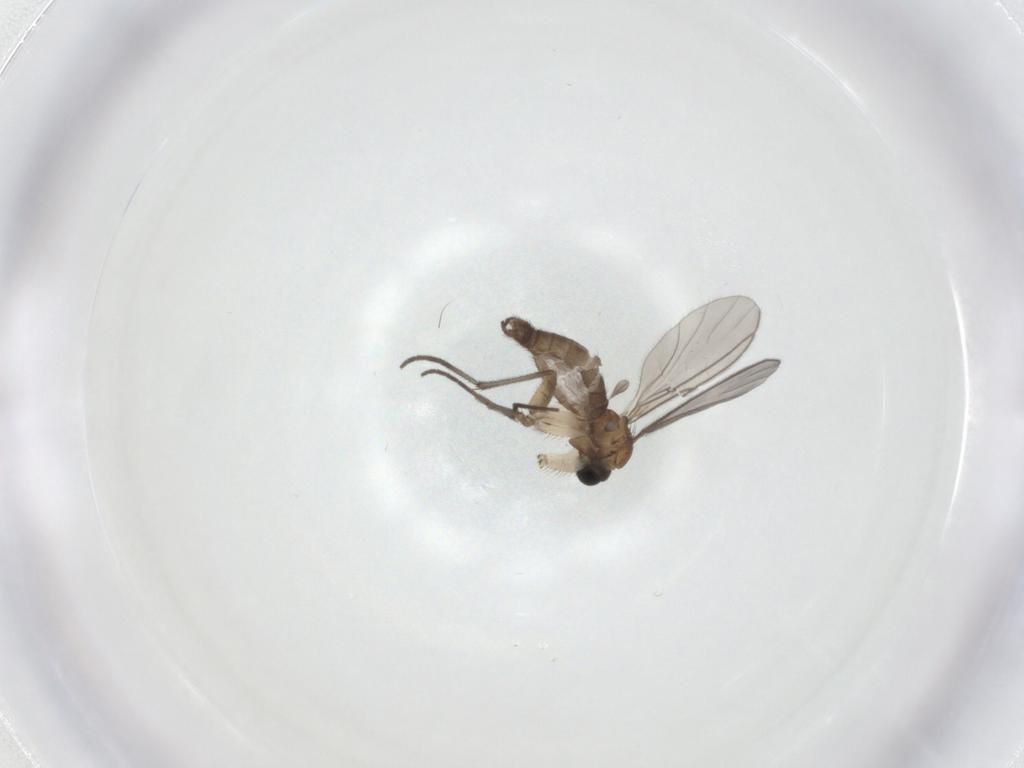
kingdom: Animalia
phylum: Arthropoda
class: Insecta
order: Diptera
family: Sciaridae
